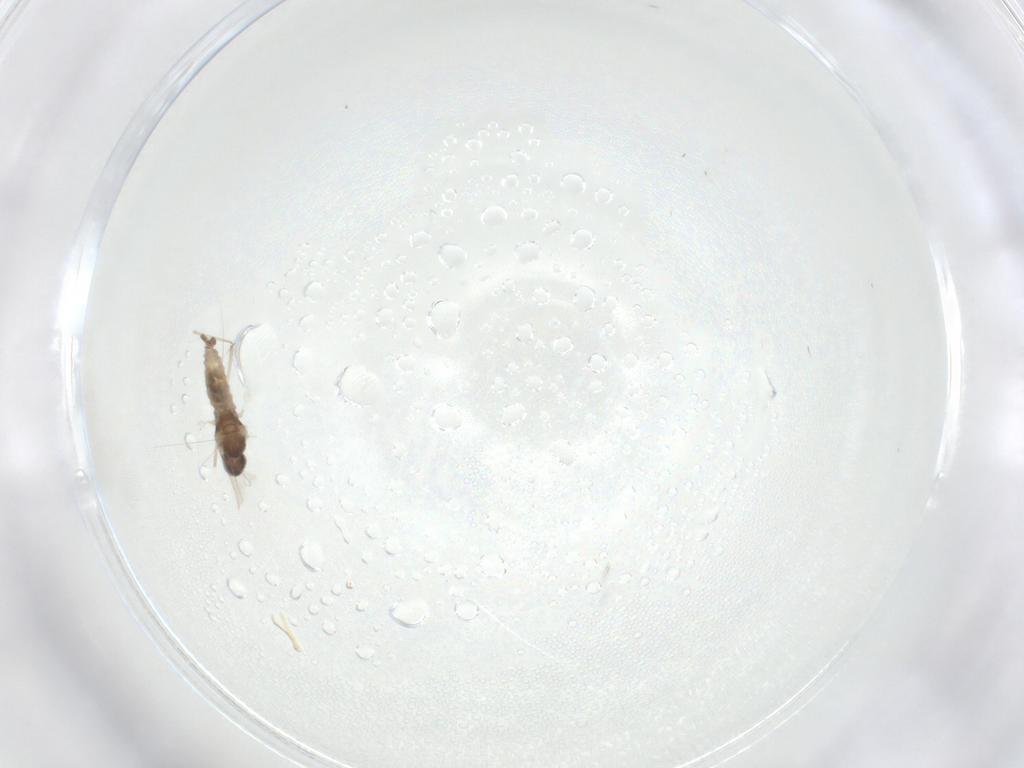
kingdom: Animalia
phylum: Arthropoda
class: Insecta
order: Diptera
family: Cecidomyiidae
